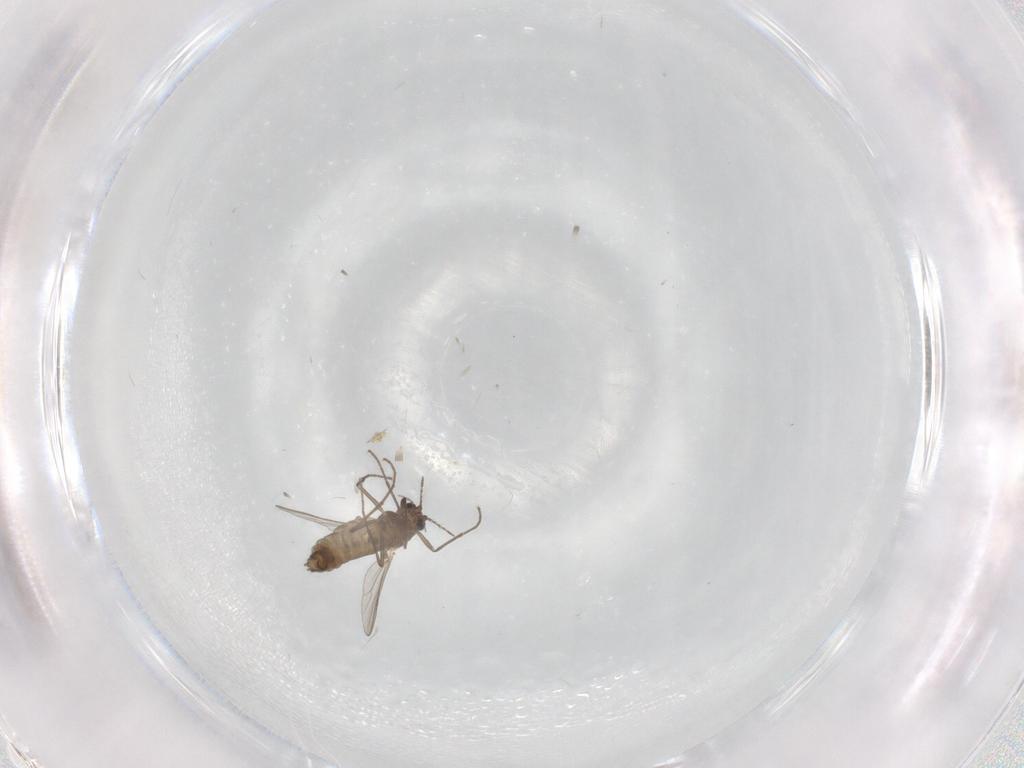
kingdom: Animalia
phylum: Arthropoda
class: Insecta
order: Diptera
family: Chironomidae
